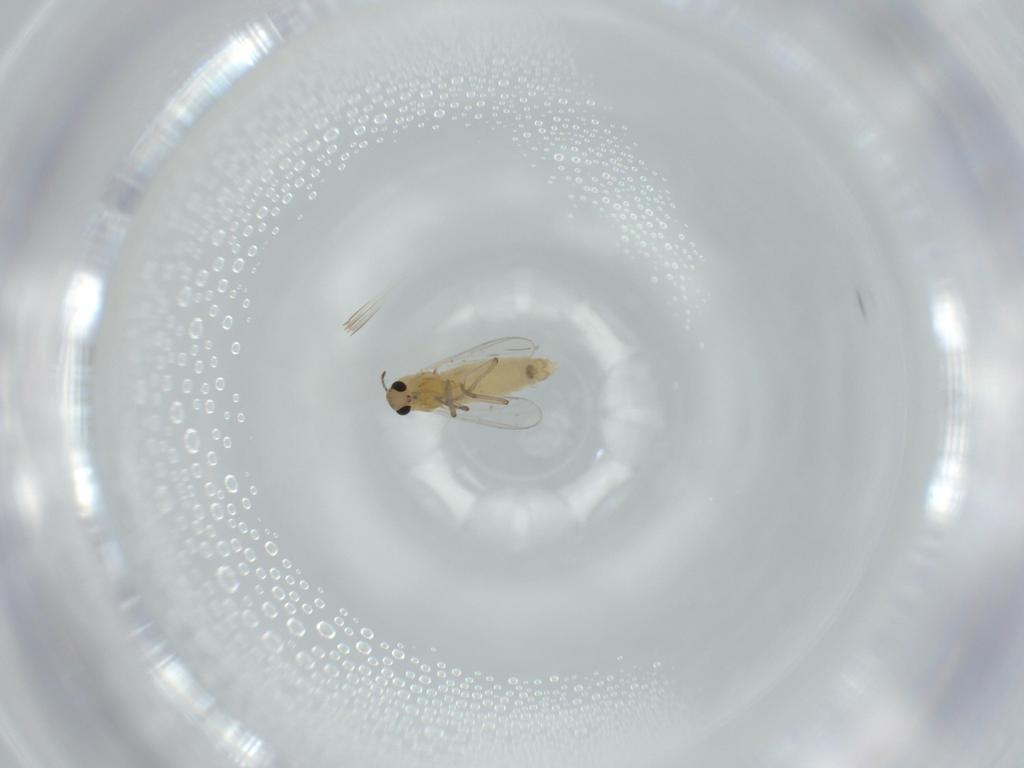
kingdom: Animalia
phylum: Arthropoda
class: Insecta
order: Diptera
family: Chironomidae
